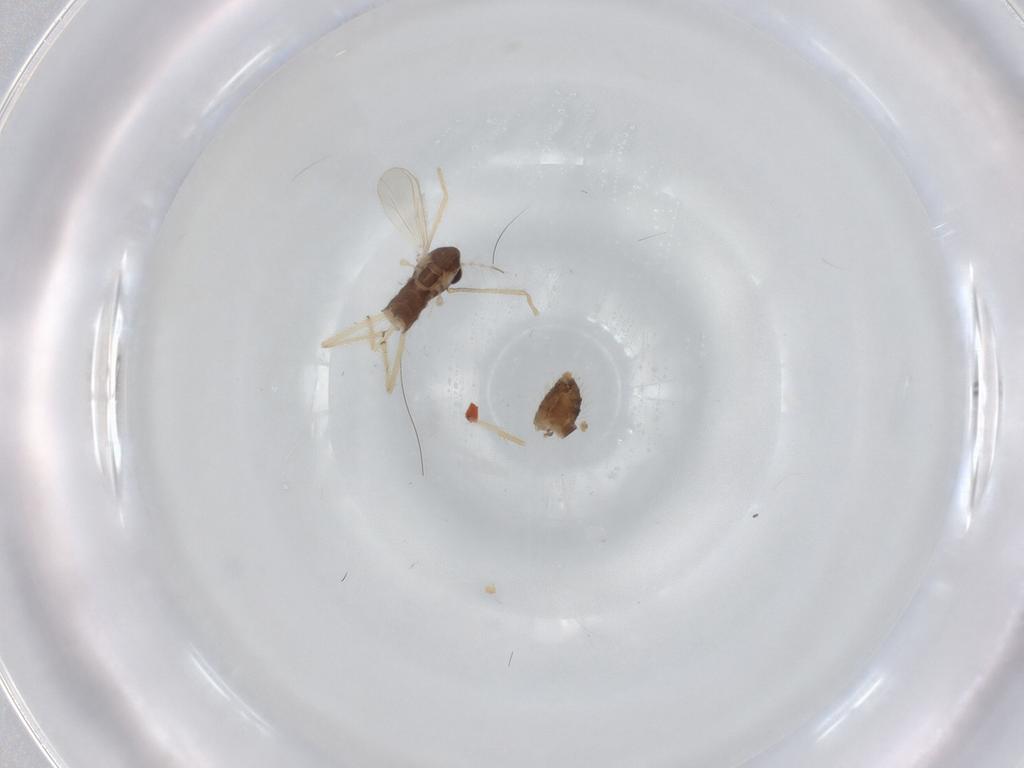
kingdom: Animalia
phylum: Arthropoda
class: Insecta
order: Diptera
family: Chironomidae
